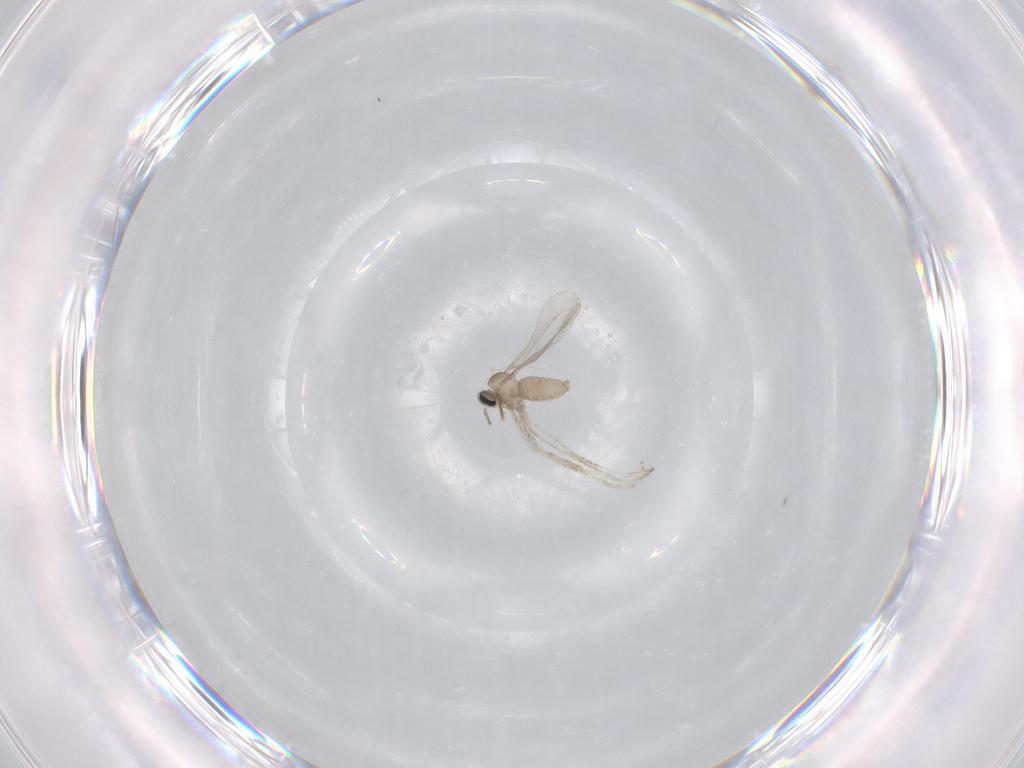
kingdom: Animalia
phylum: Arthropoda
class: Insecta
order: Diptera
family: Cecidomyiidae
